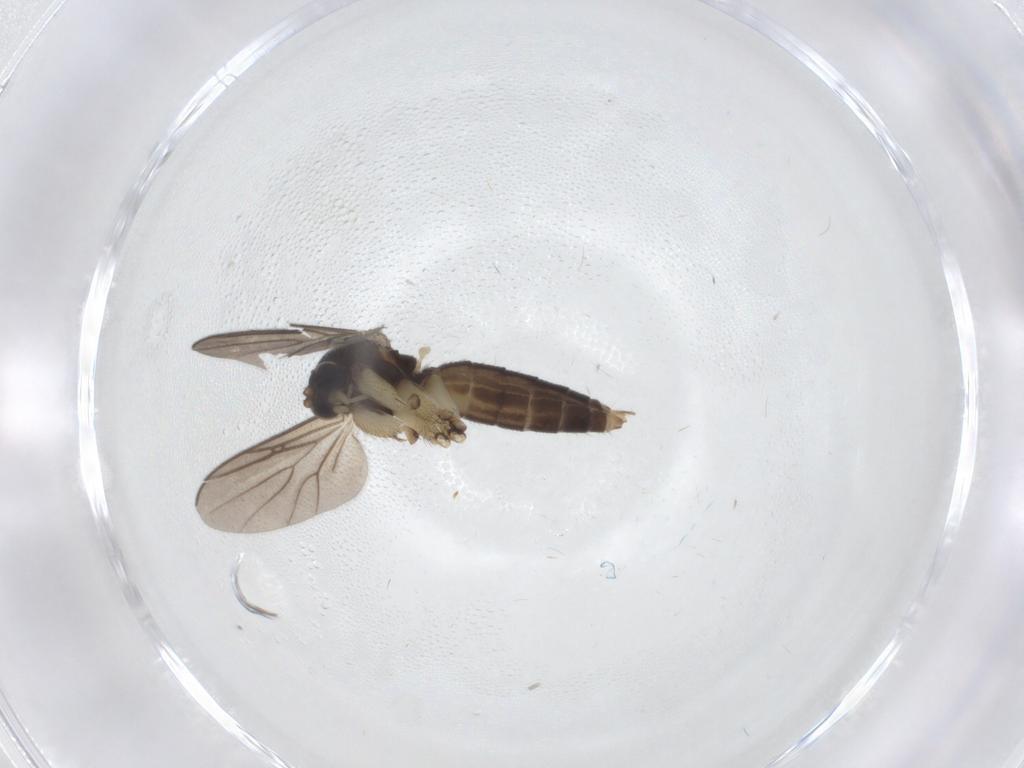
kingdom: Animalia
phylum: Arthropoda
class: Insecta
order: Diptera
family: Mycetophilidae
